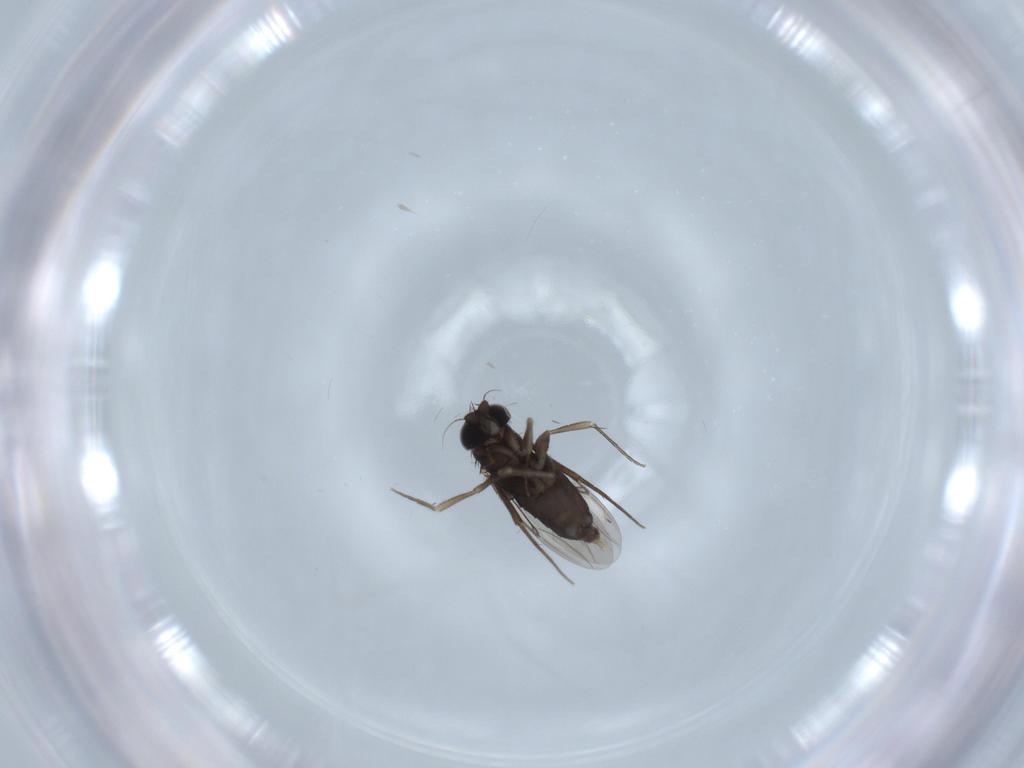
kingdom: Animalia
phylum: Arthropoda
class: Insecta
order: Diptera
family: Phoridae
